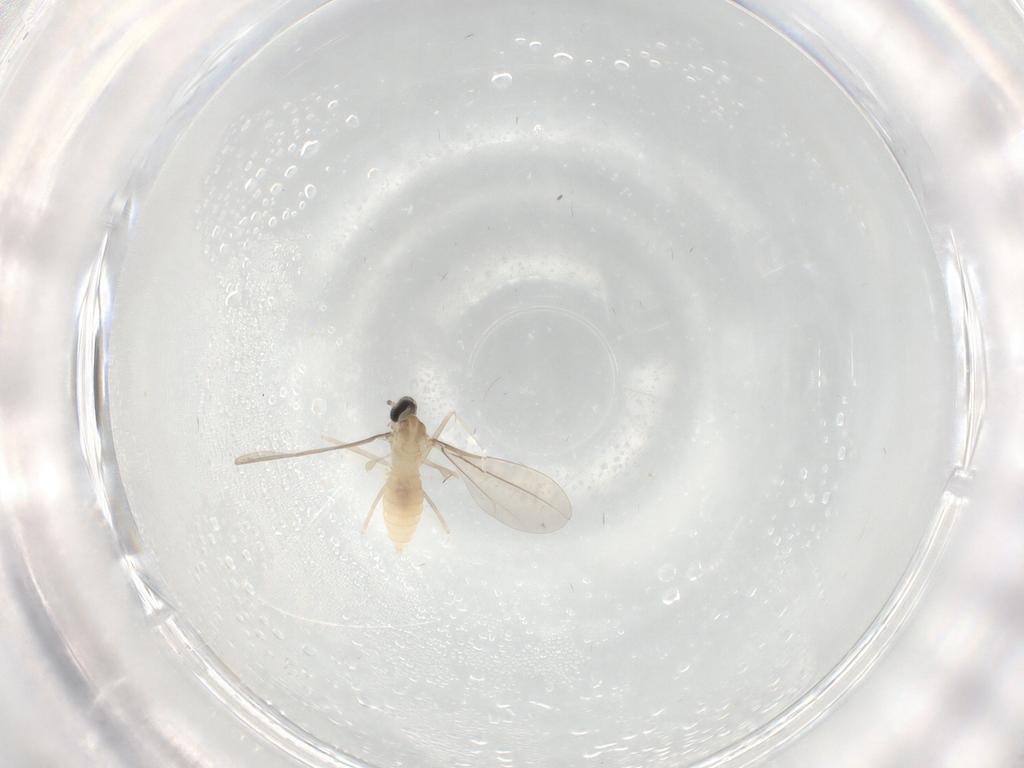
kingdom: Animalia
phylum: Arthropoda
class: Insecta
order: Diptera
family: Cecidomyiidae
